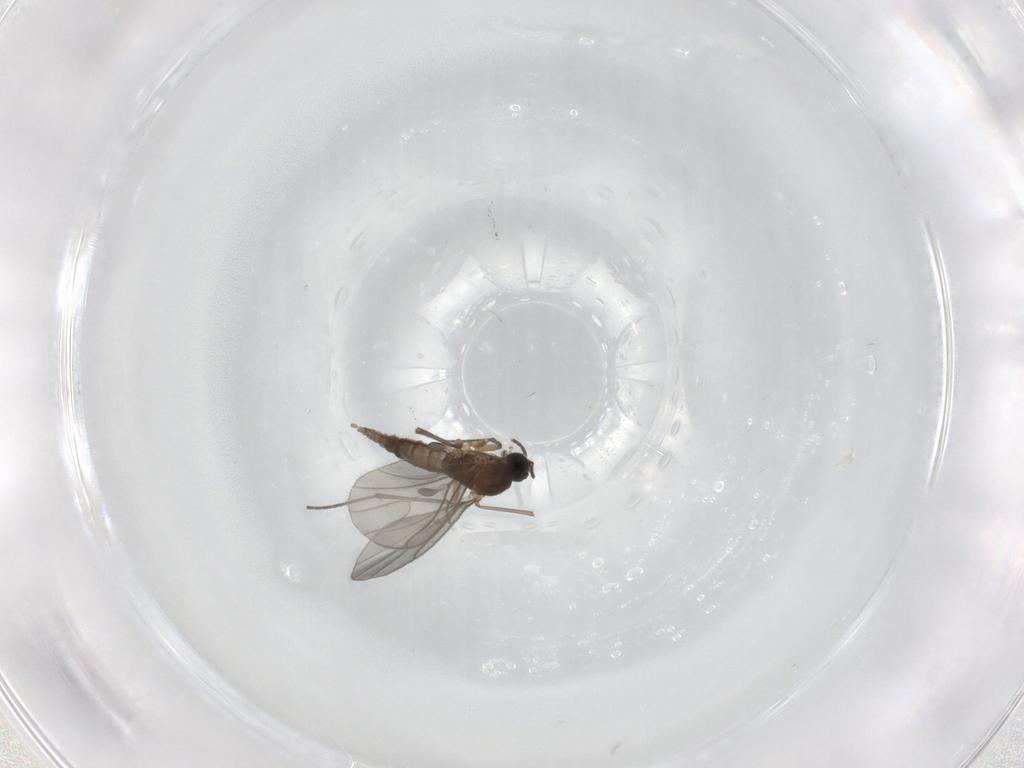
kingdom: Animalia
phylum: Arthropoda
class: Insecta
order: Diptera
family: Sciaridae
